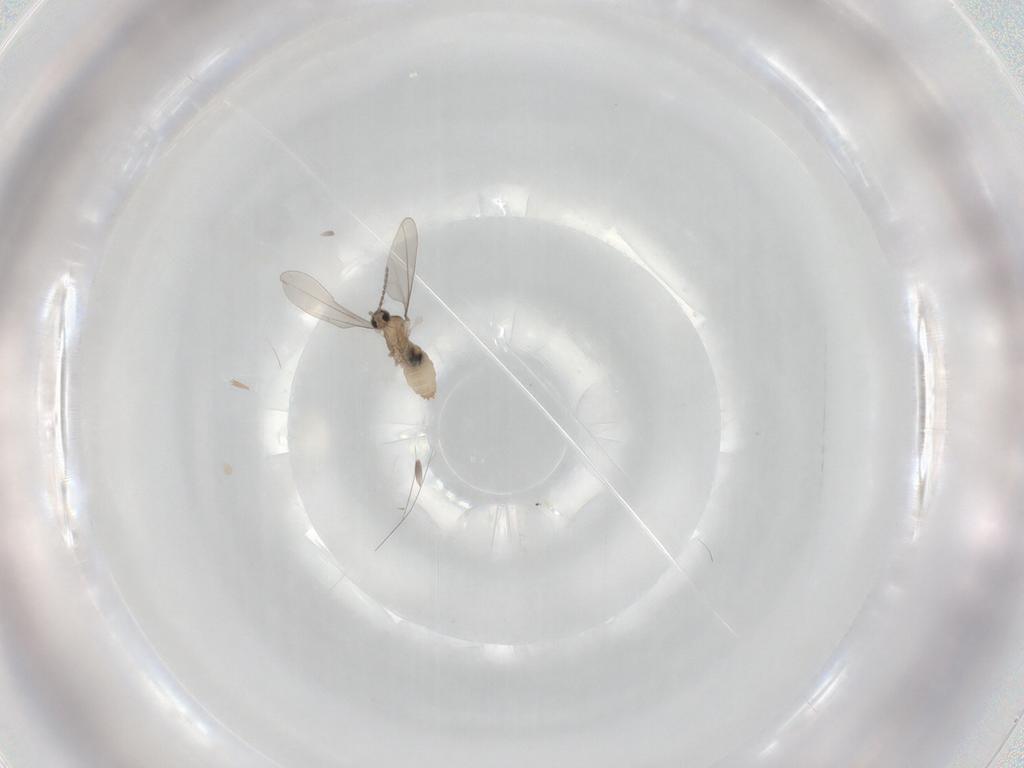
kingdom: Animalia
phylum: Arthropoda
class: Insecta
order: Diptera
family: Cecidomyiidae
